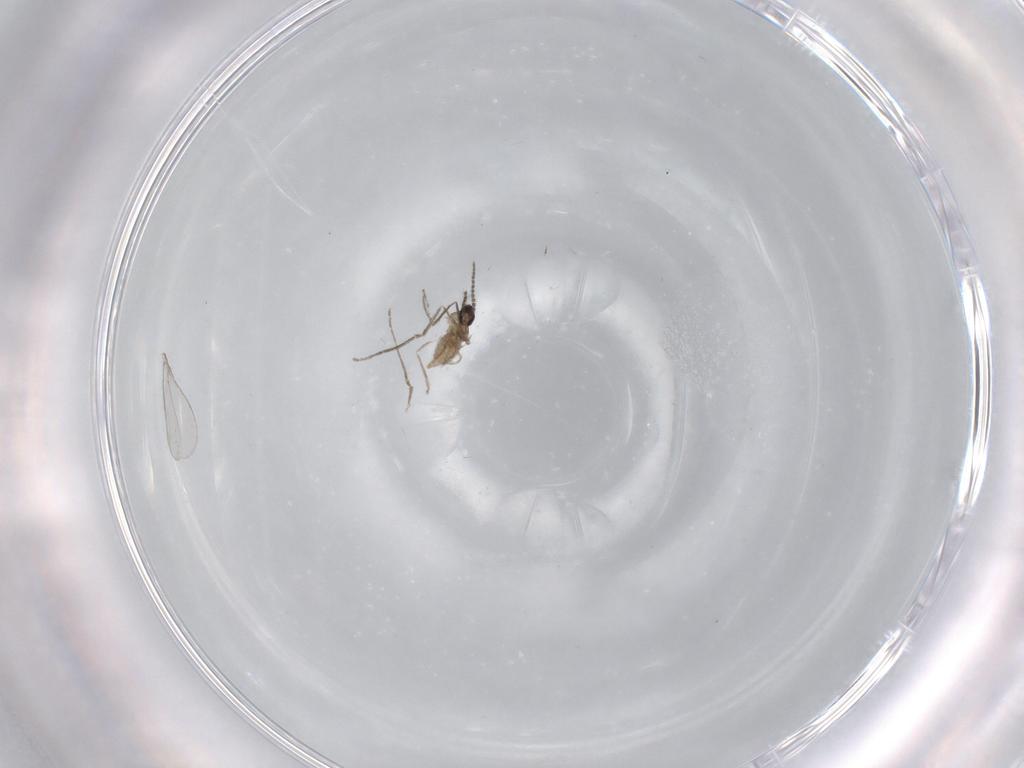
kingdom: Animalia
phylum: Arthropoda
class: Insecta
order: Diptera
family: Cecidomyiidae
